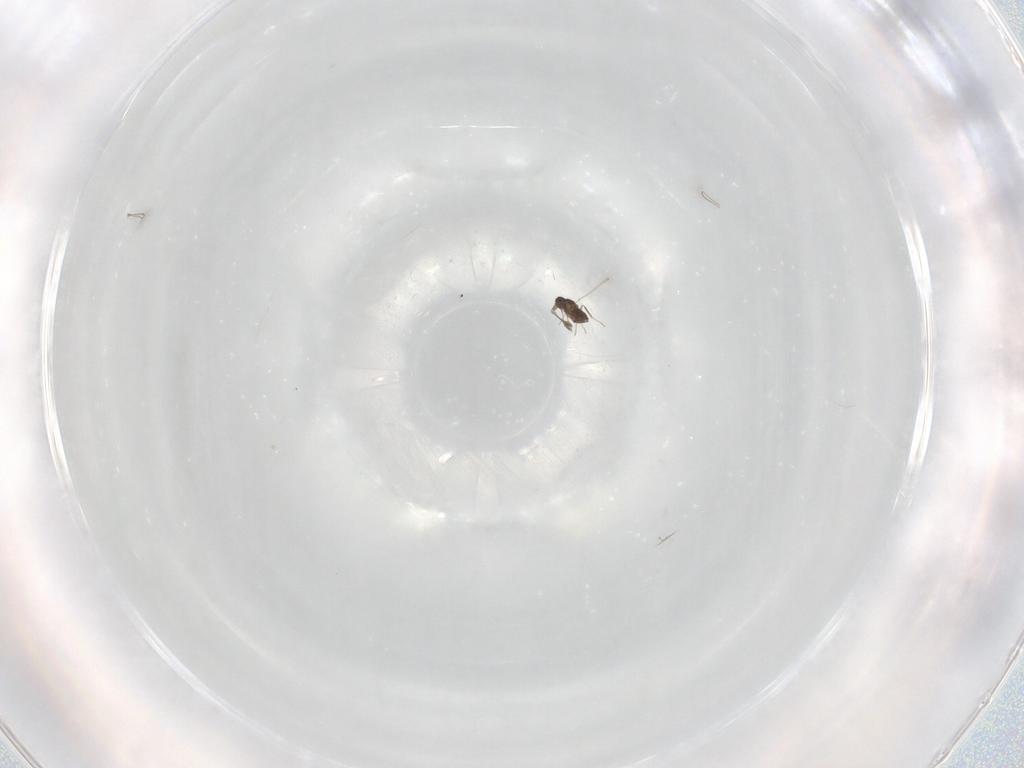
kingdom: Animalia
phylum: Arthropoda
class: Insecta
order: Hymenoptera
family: Mymaridae
